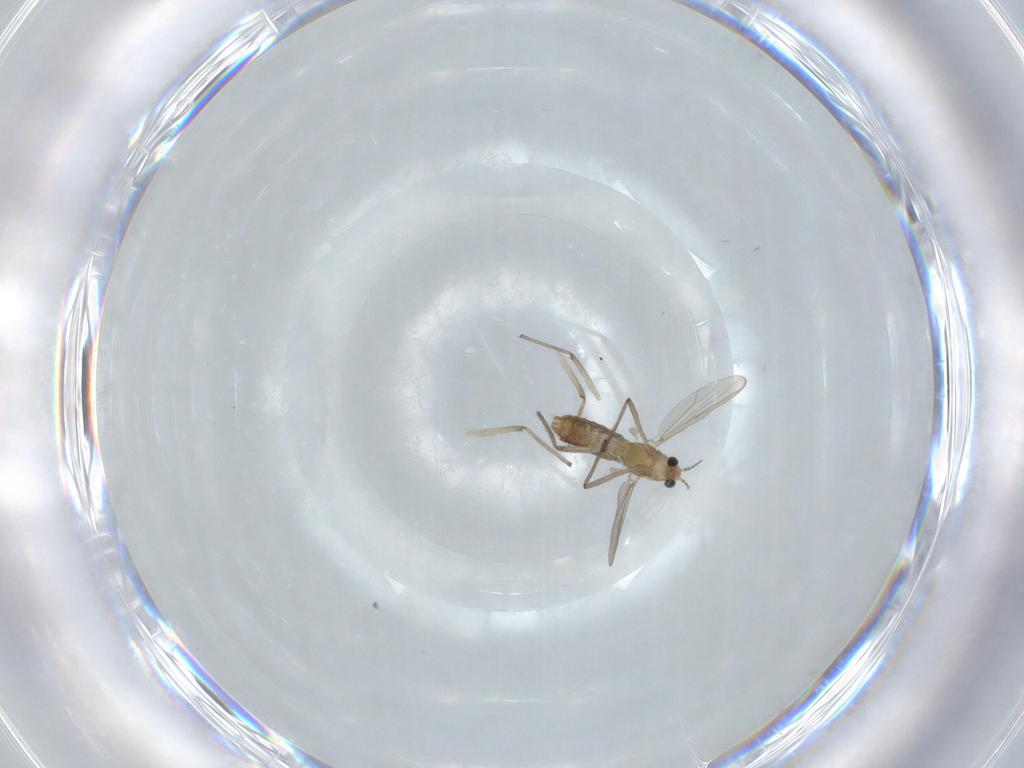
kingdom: Animalia
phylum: Arthropoda
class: Insecta
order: Diptera
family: Chironomidae
